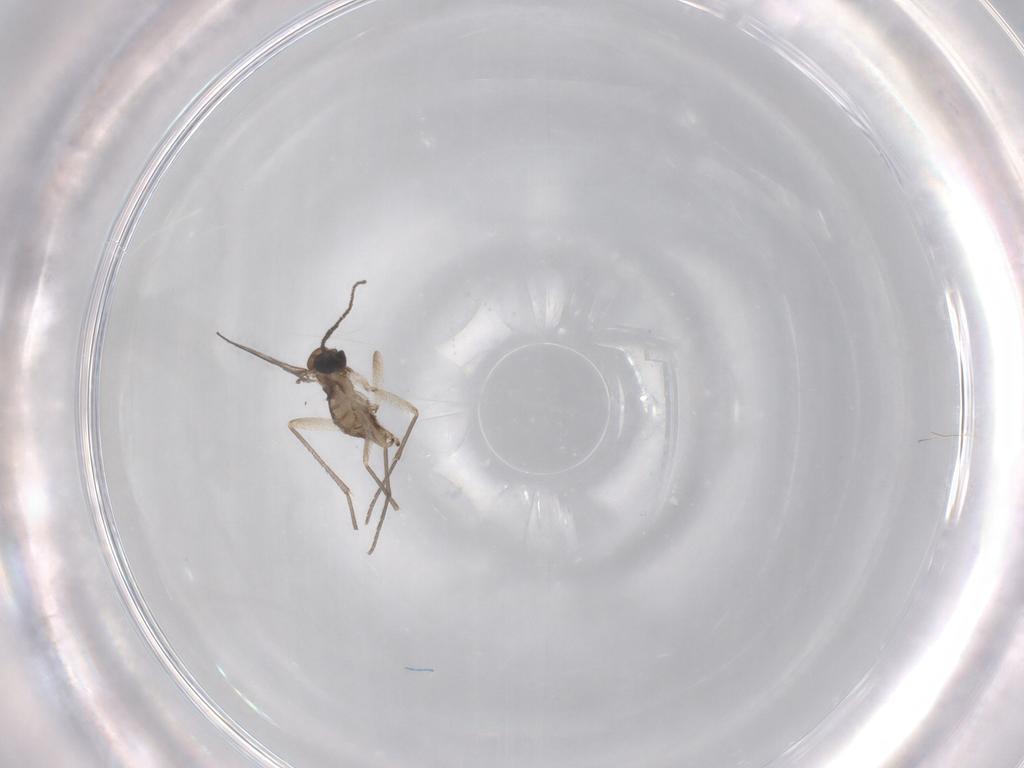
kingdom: Animalia
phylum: Arthropoda
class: Insecta
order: Diptera
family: Sciaridae
